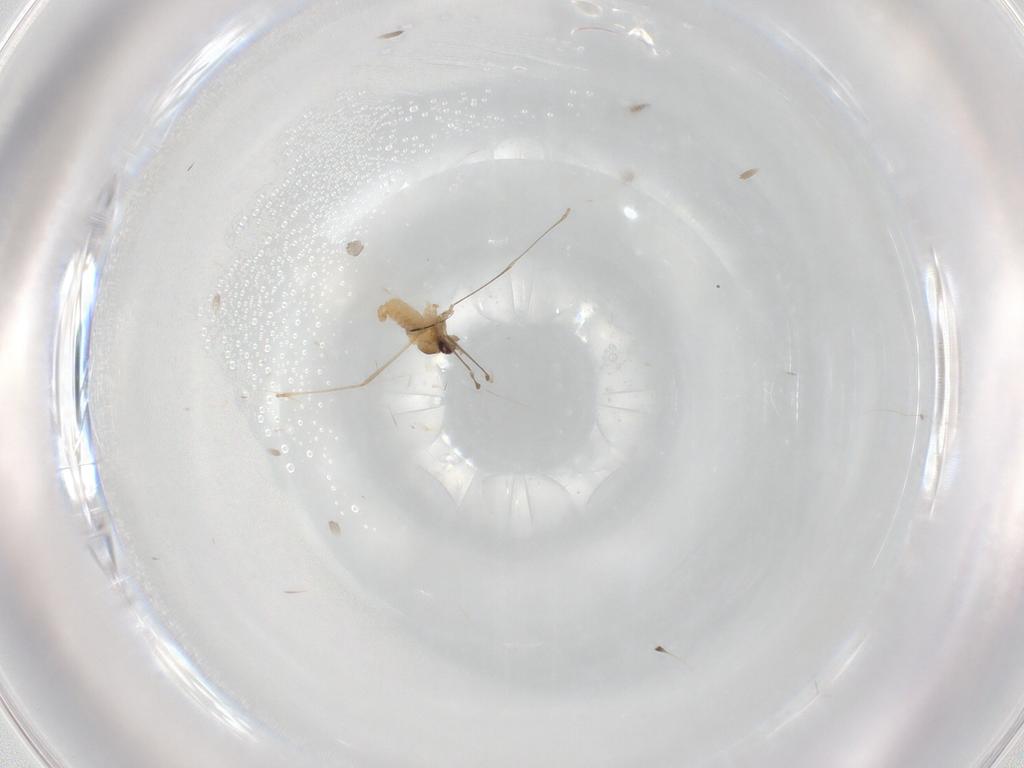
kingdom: Animalia
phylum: Arthropoda
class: Insecta
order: Diptera
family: Cecidomyiidae
